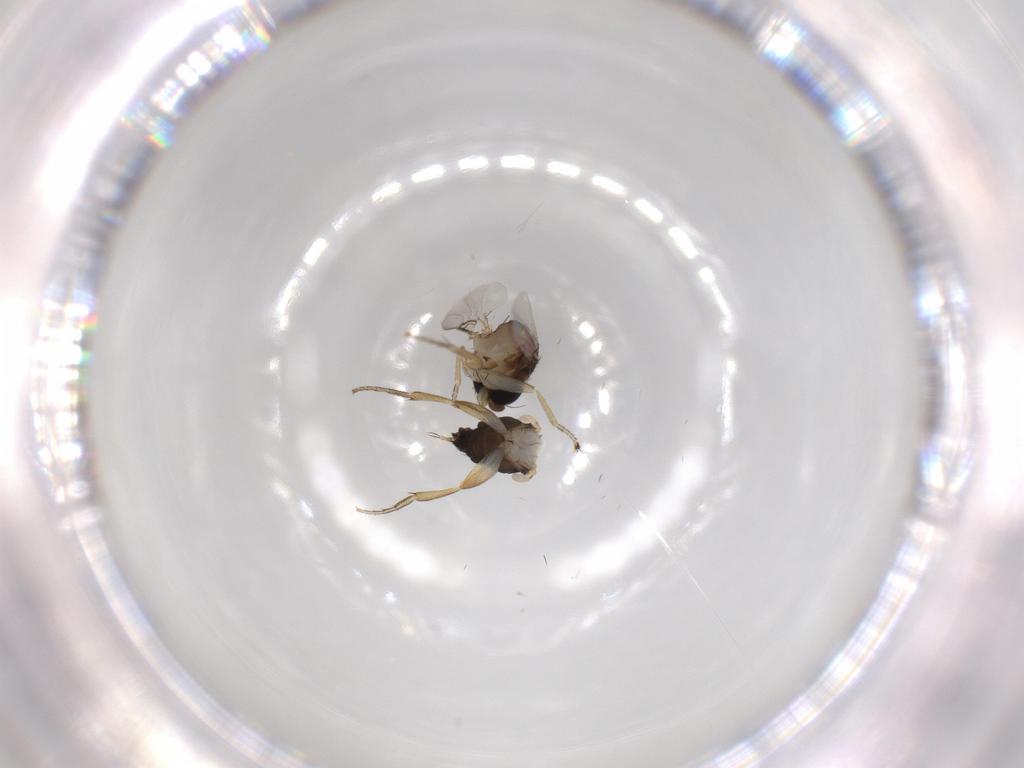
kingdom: Animalia
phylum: Arthropoda
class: Insecta
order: Diptera
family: Phoridae
